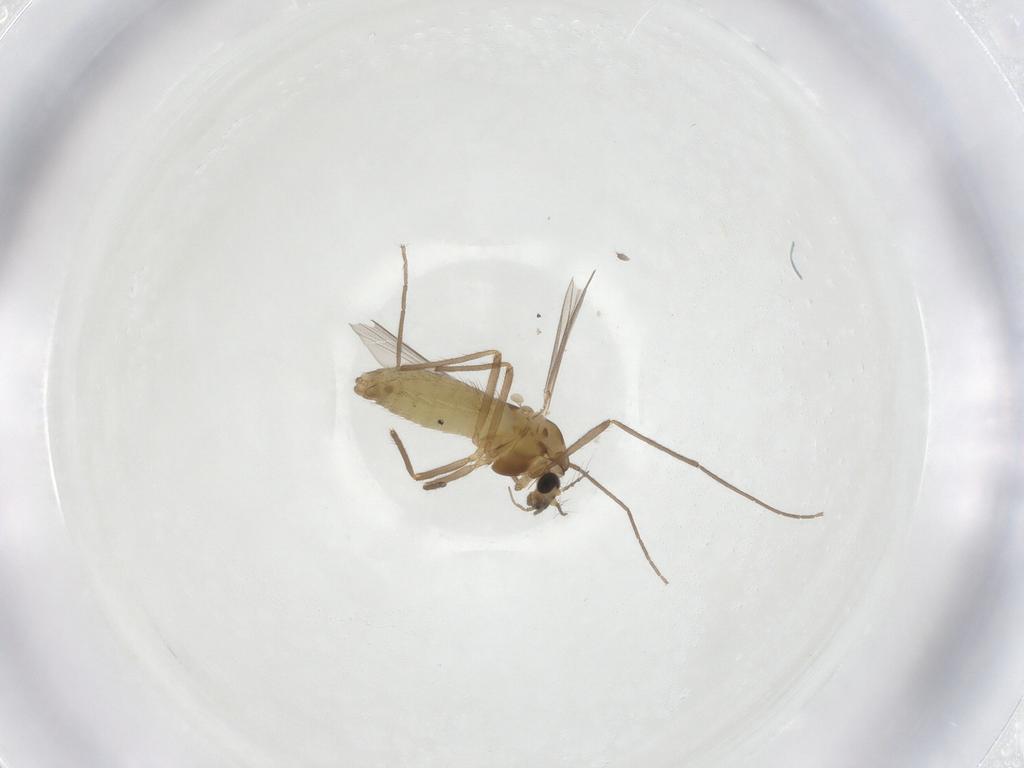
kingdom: Animalia
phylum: Arthropoda
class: Insecta
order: Diptera
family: Chironomidae
